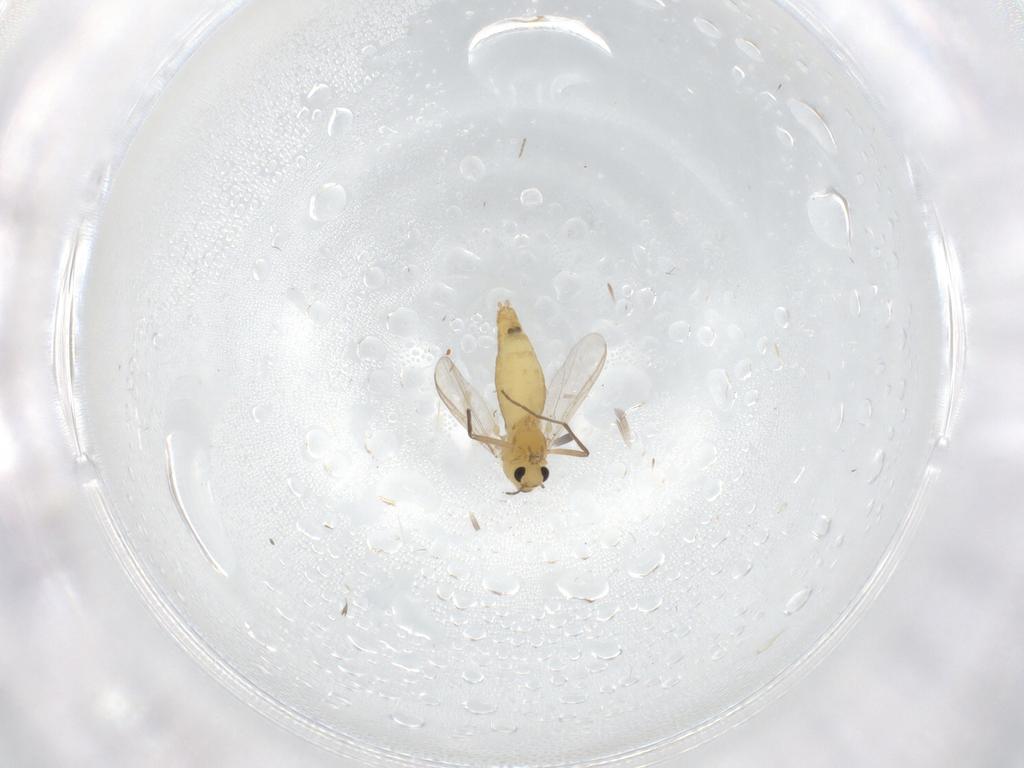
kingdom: Animalia
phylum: Arthropoda
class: Insecta
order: Diptera
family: Chironomidae
